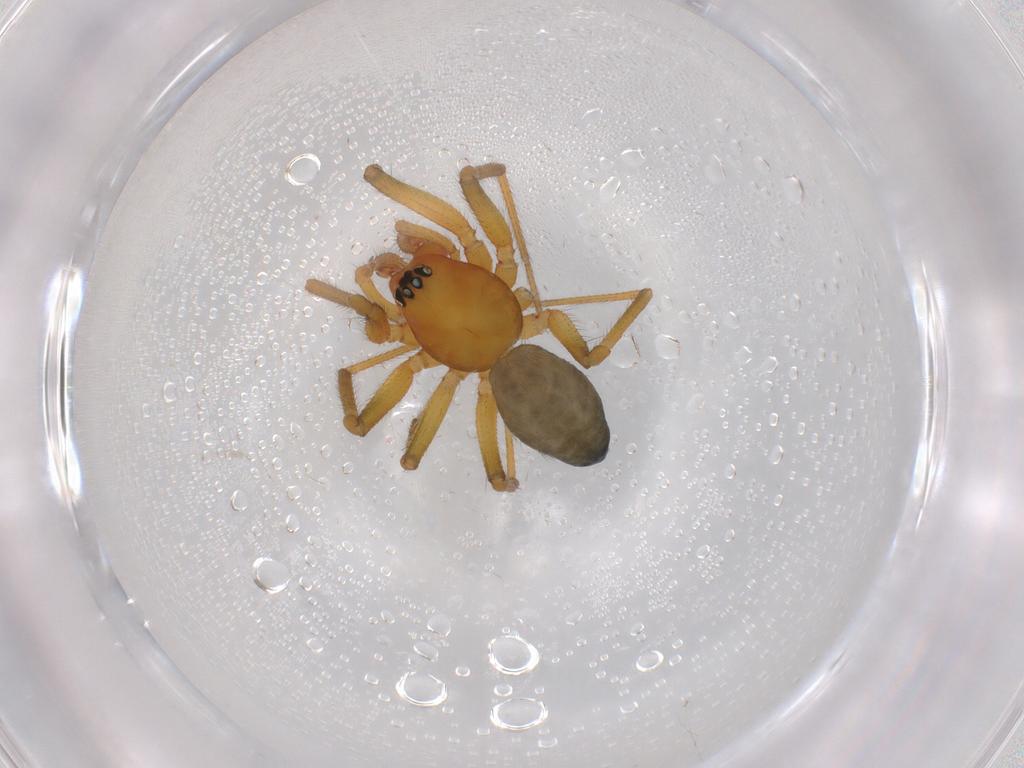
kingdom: Animalia
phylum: Arthropoda
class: Arachnida
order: Araneae
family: Linyphiidae
